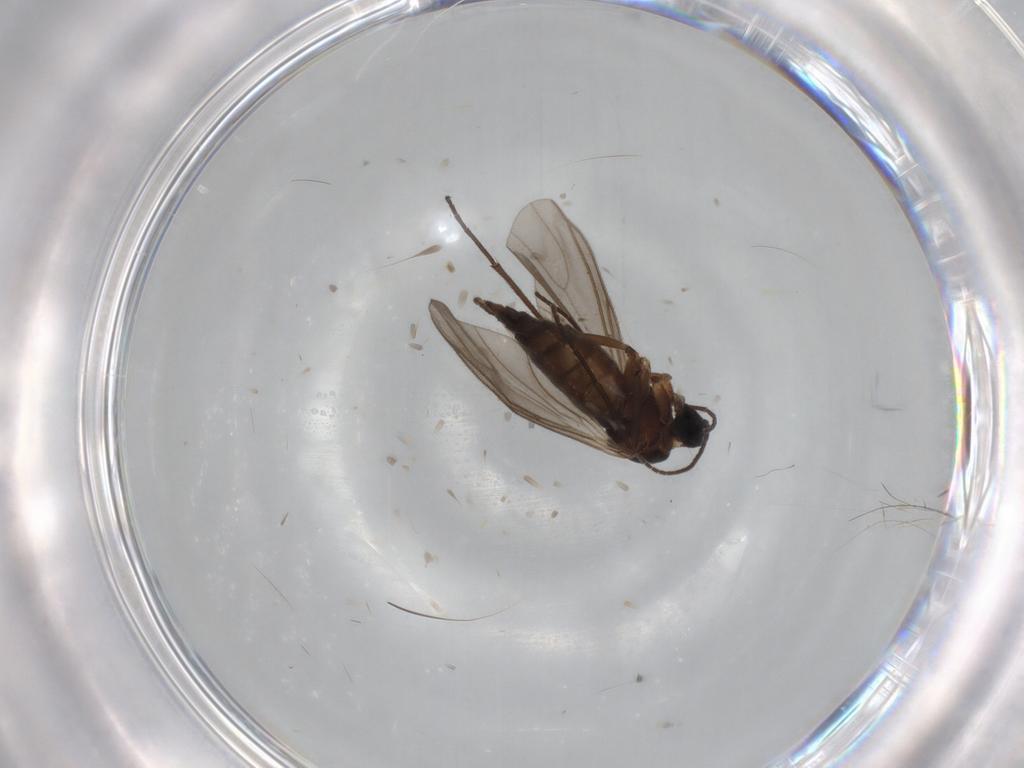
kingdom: Animalia
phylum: Arthropoda
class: Insecta
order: Diptera
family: Sciaridae
